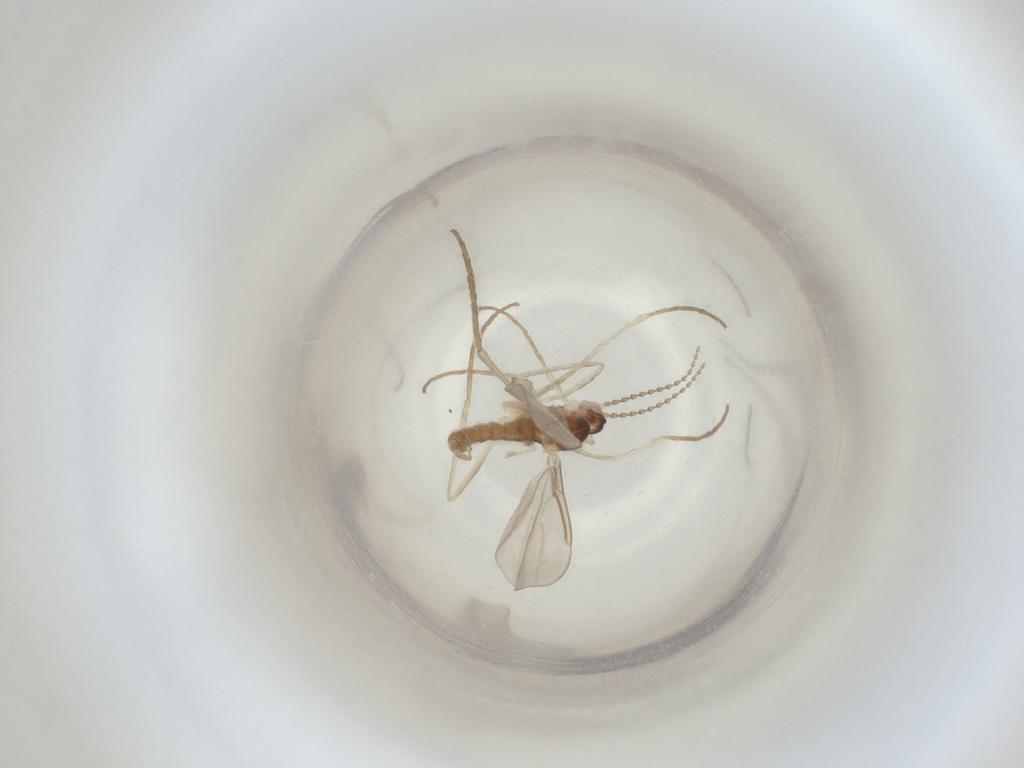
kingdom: Animalia
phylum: Arthropoda
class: Insecta
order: Diptera
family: Cecidomyiidae
